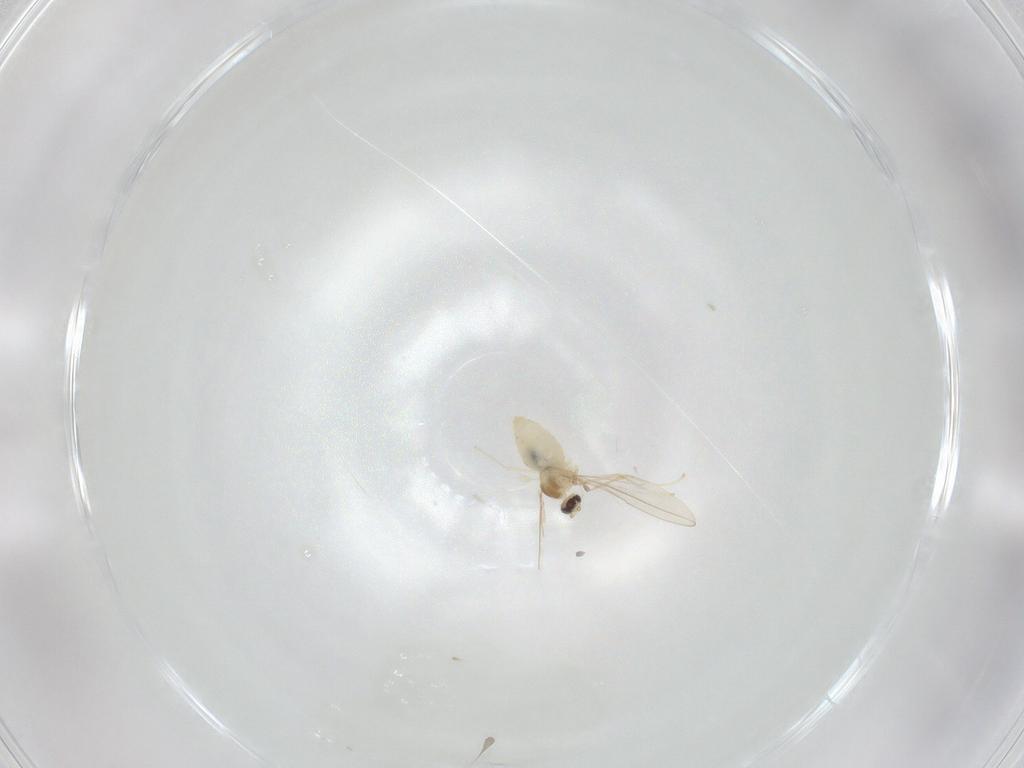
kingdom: Animalia
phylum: Arthropoda
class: Insecta
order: Diptera
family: Cecidomyiidae
